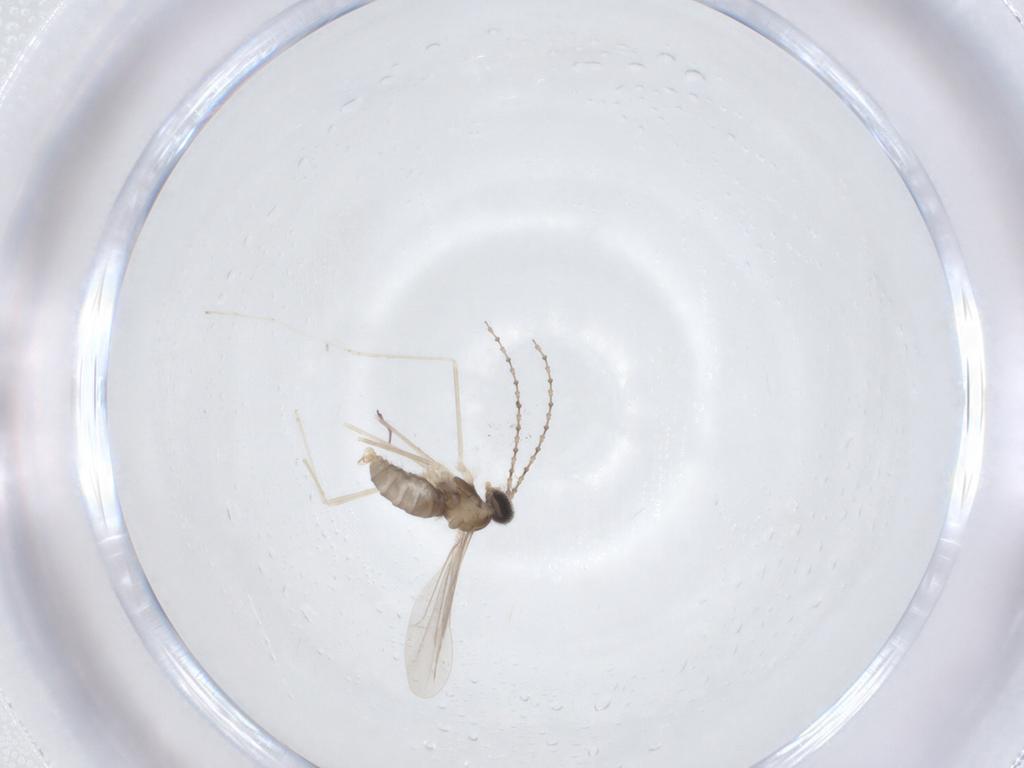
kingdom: Animalia
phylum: Arthropoda
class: Insecta
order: Diptera
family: Cecidomyiidae
